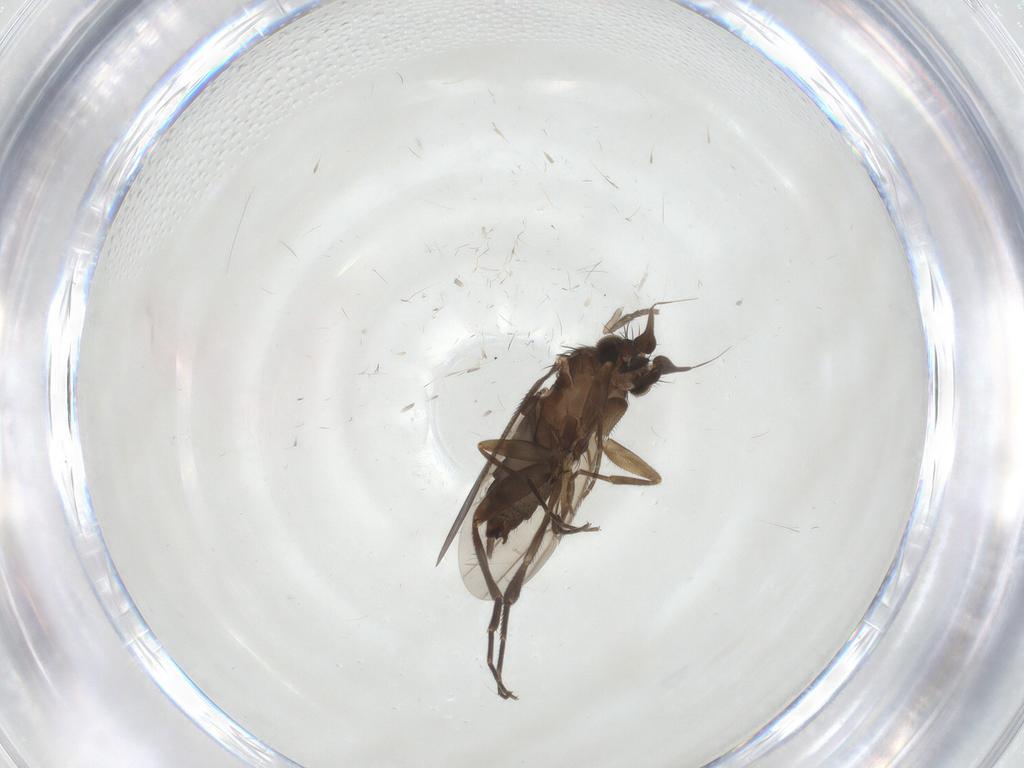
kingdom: Animalia
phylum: Arthropoda
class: Insecta
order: Diptera
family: Phoridae
